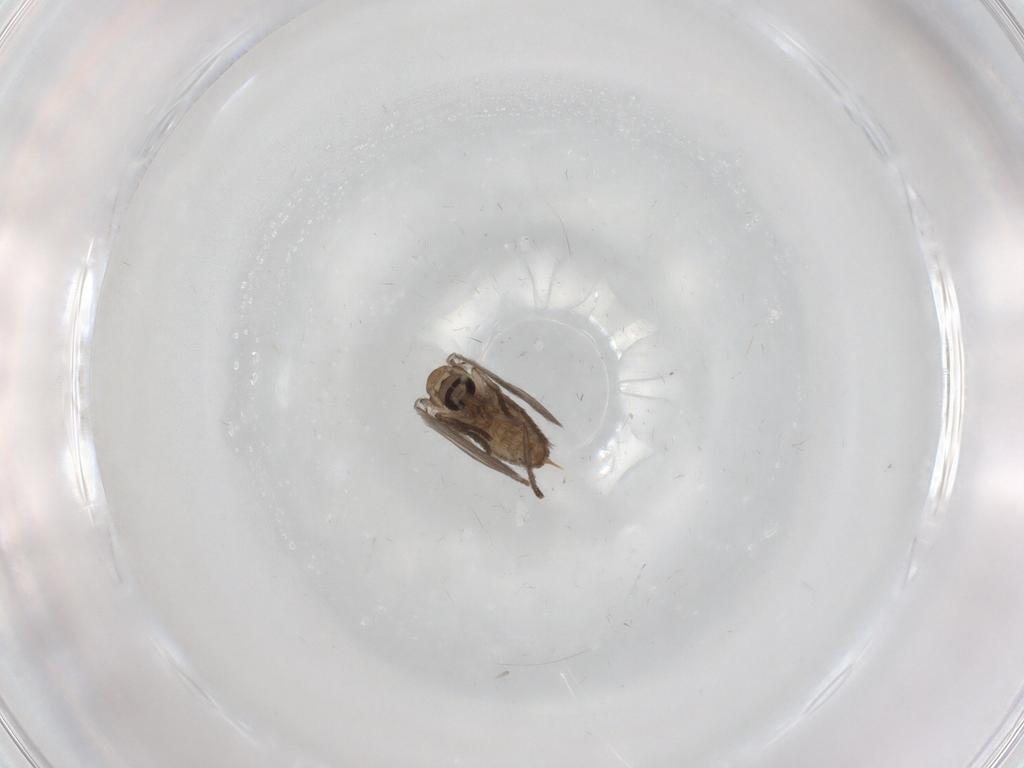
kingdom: Animalia
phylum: Arthropoda
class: Insecta
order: Diptera
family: Psychodidae
